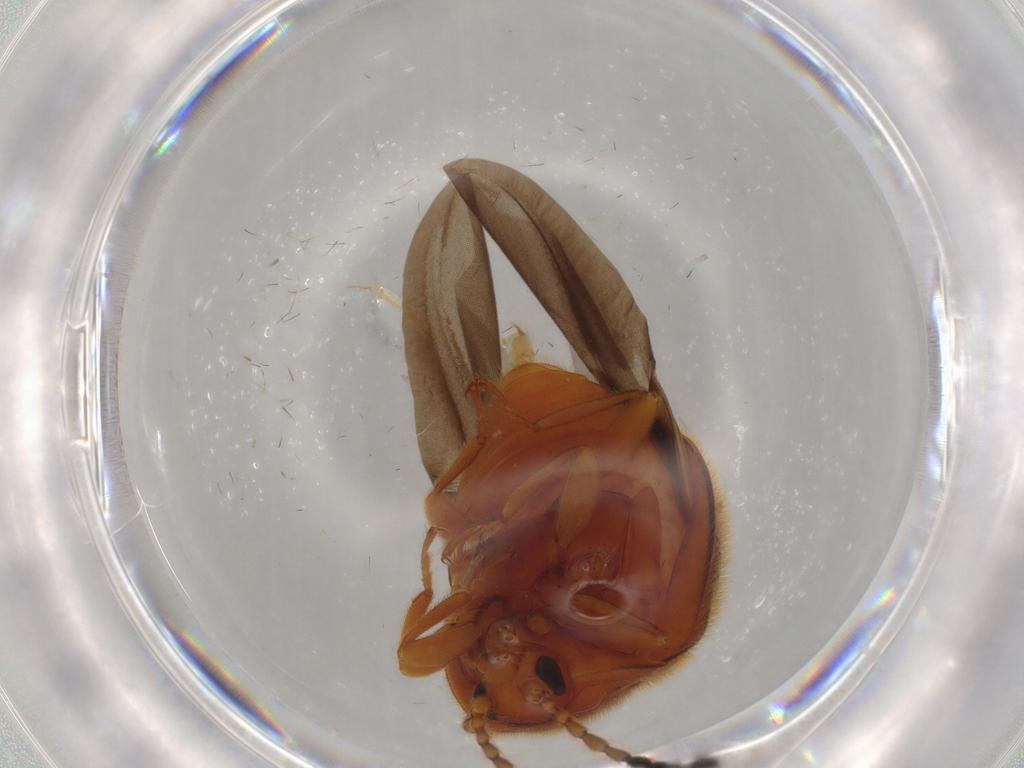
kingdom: Animalia
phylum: Arthropoda
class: Insecta
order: Coleoptera
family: Endomychidae
